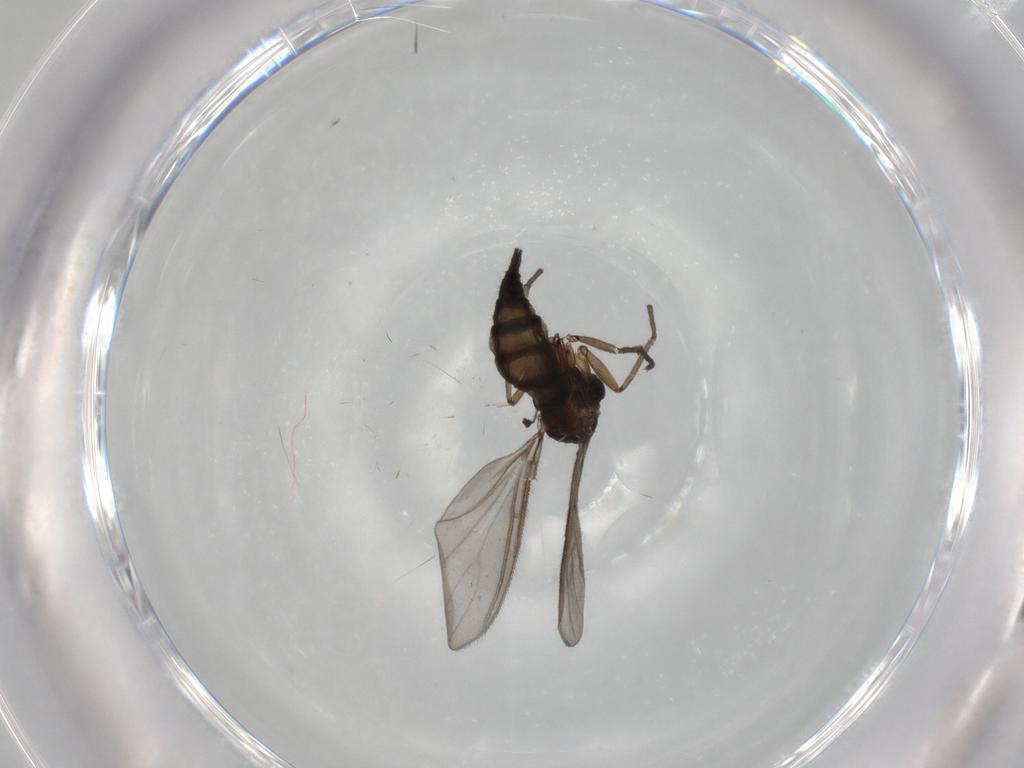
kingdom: Animalia
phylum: Arthropoda
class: Insecta
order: Diptera
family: Sciaridae
